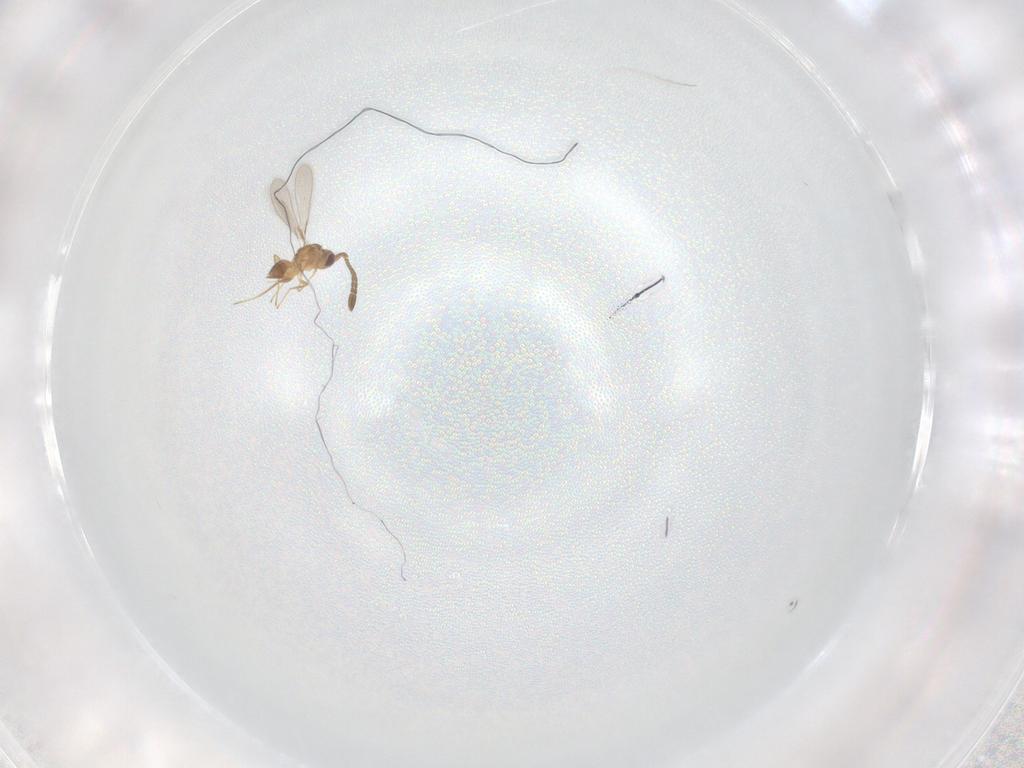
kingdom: Animalia
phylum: Arthropoda
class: Insecta
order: Hymenoptera
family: Mymaridae
